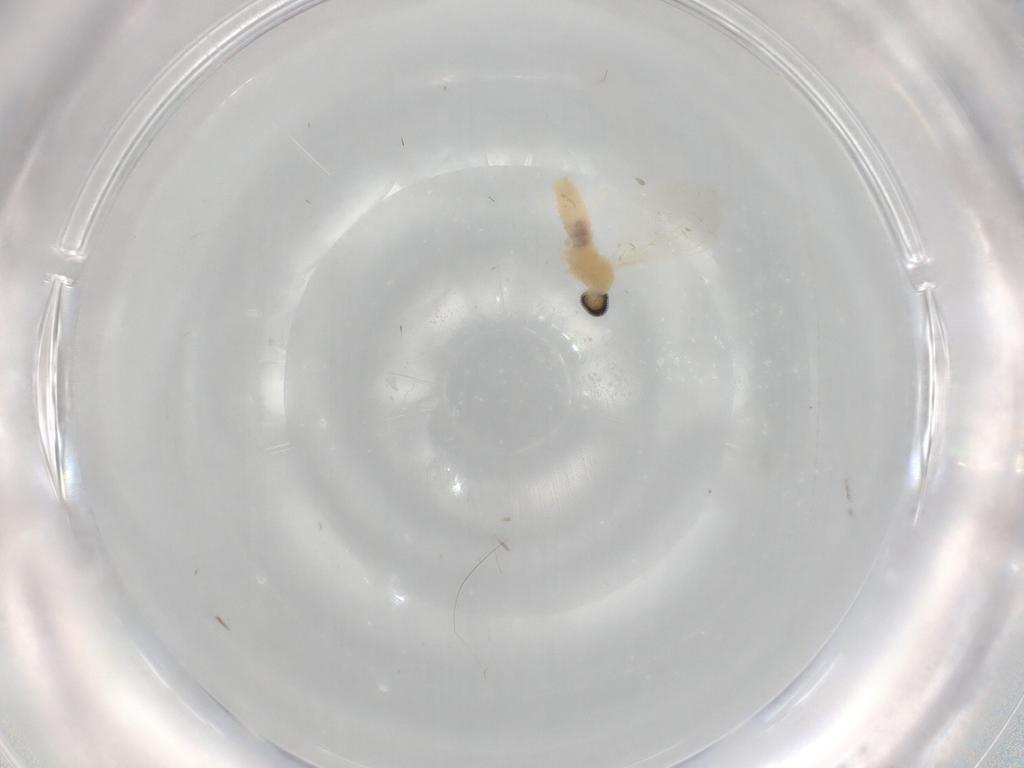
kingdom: Animalia
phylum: Arthropoda
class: Insecta
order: Diptera
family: Cecidomyiidae
